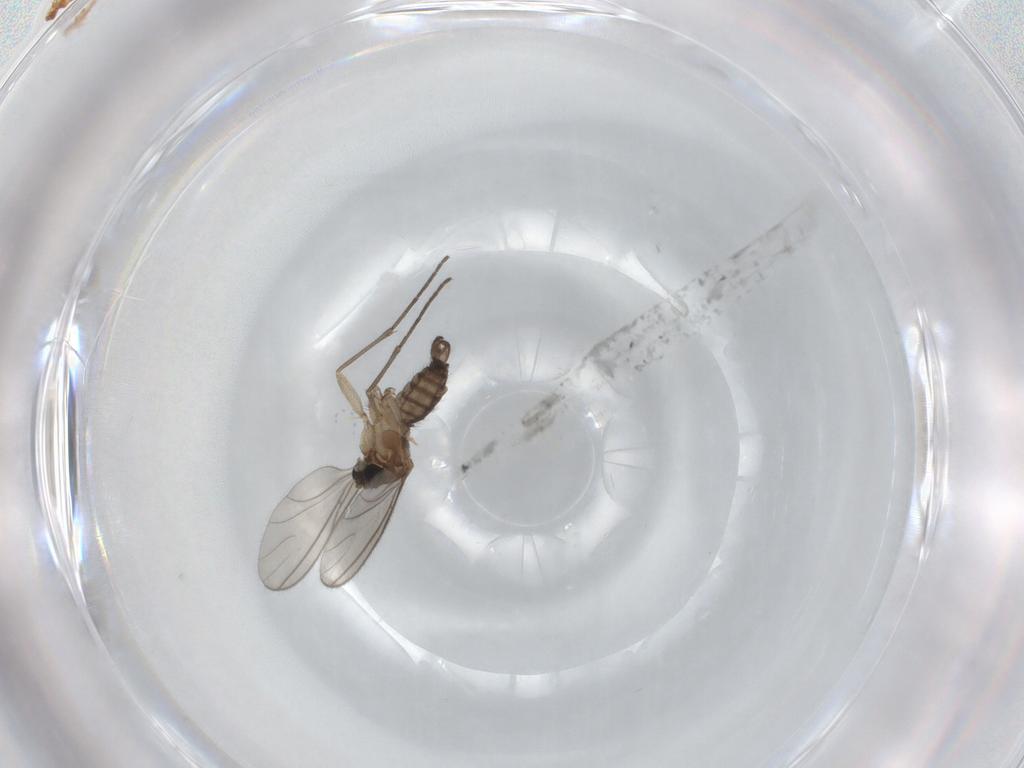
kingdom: Animalia
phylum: Arthropoda
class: Insecta
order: Diptera
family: Sciaridae
